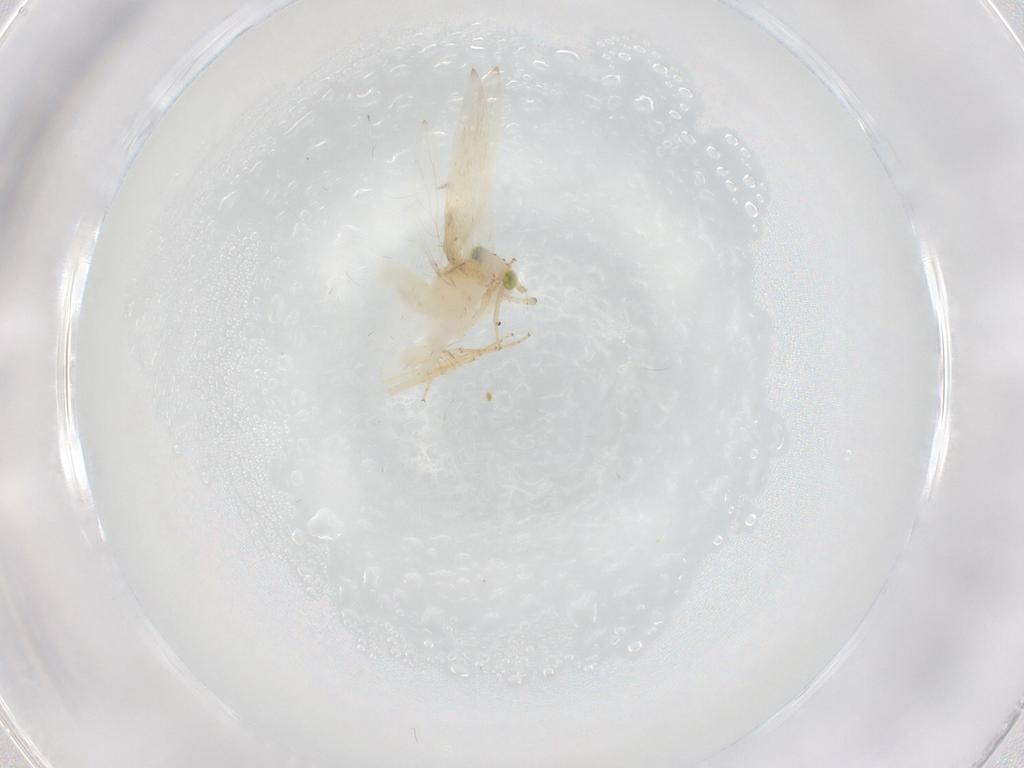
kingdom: Animalia
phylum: Arthropoda
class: Insecta
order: Psocodea
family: Lepidopsocidae
